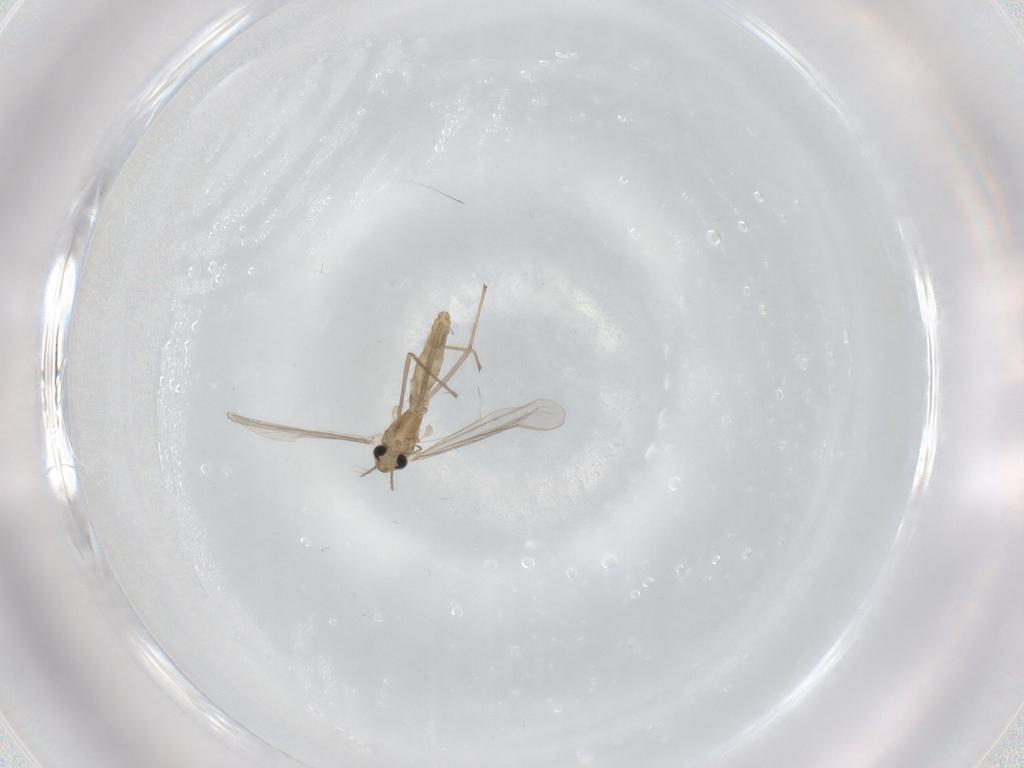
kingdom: Animalia
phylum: Arthropoda
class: Insecta
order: Diptera
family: Chironomidae
